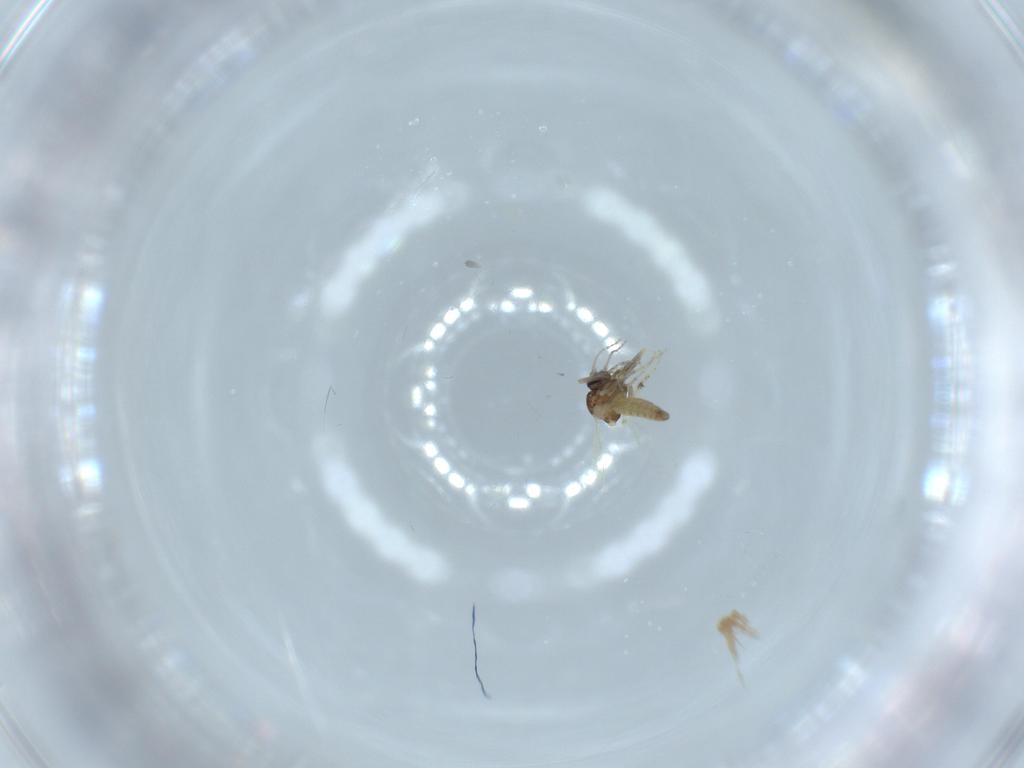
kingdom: Animalia
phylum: Arthropoda
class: Insecta
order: Diptera
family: Ceratopogonidae
